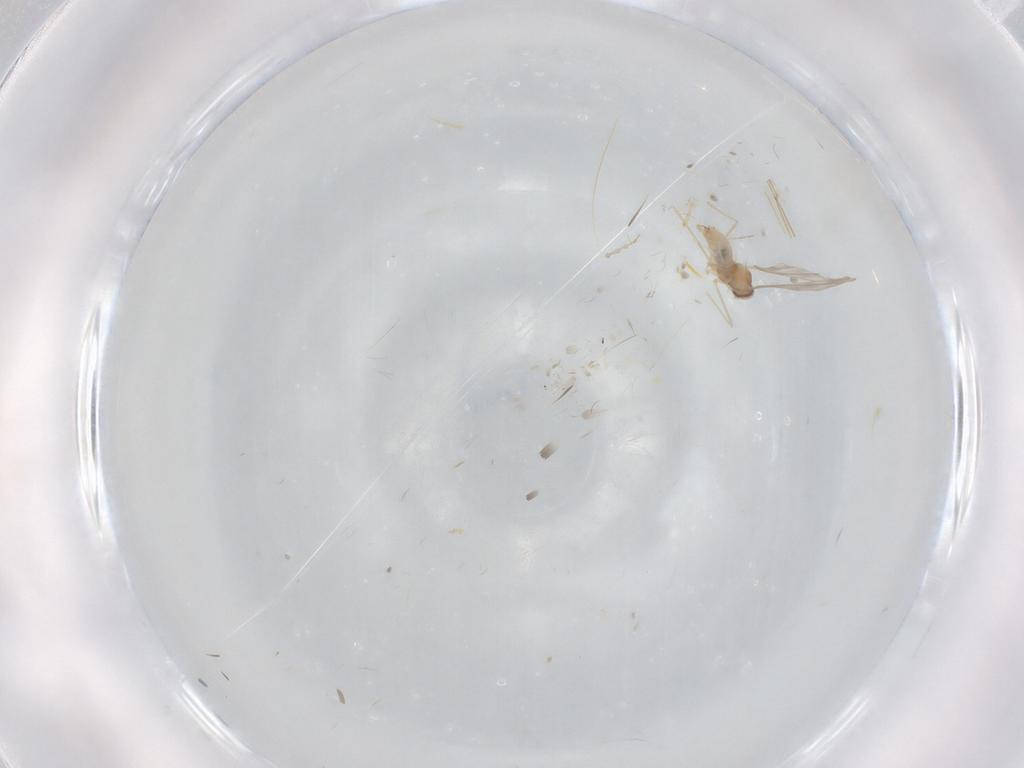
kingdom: Animalia
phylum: Arthropoda
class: Insecta
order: Diptera
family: Cecidomyiidae
